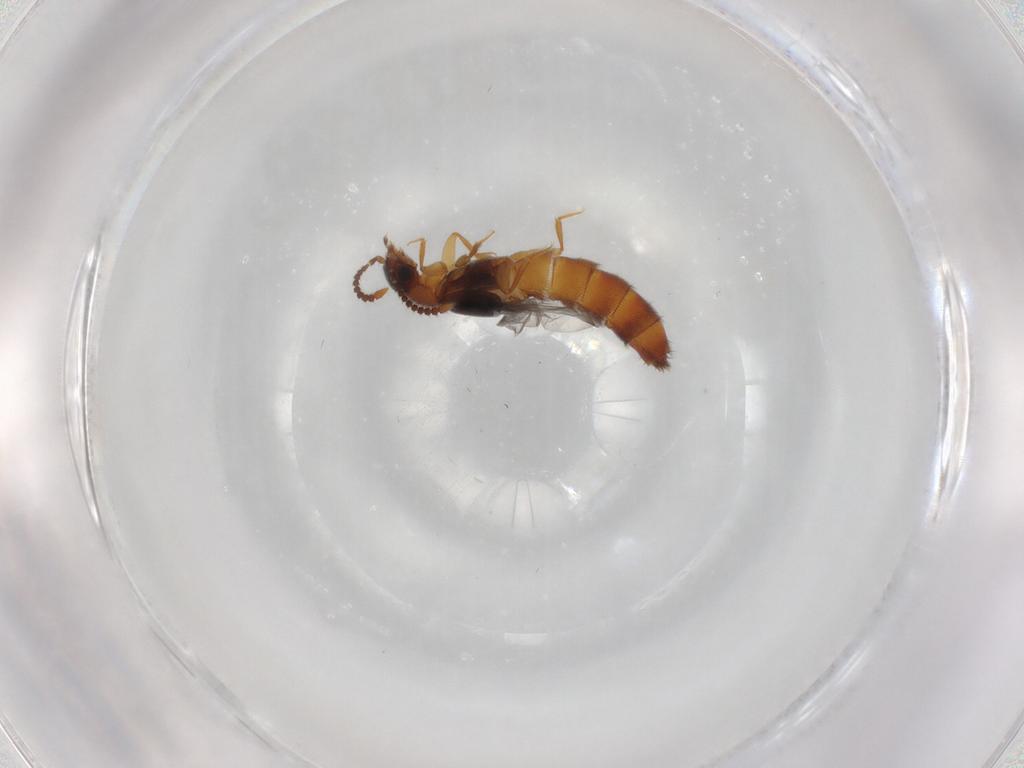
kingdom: Animalia
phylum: Arthropoda
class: Insecta
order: Coleoptera
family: Staphylinidae
